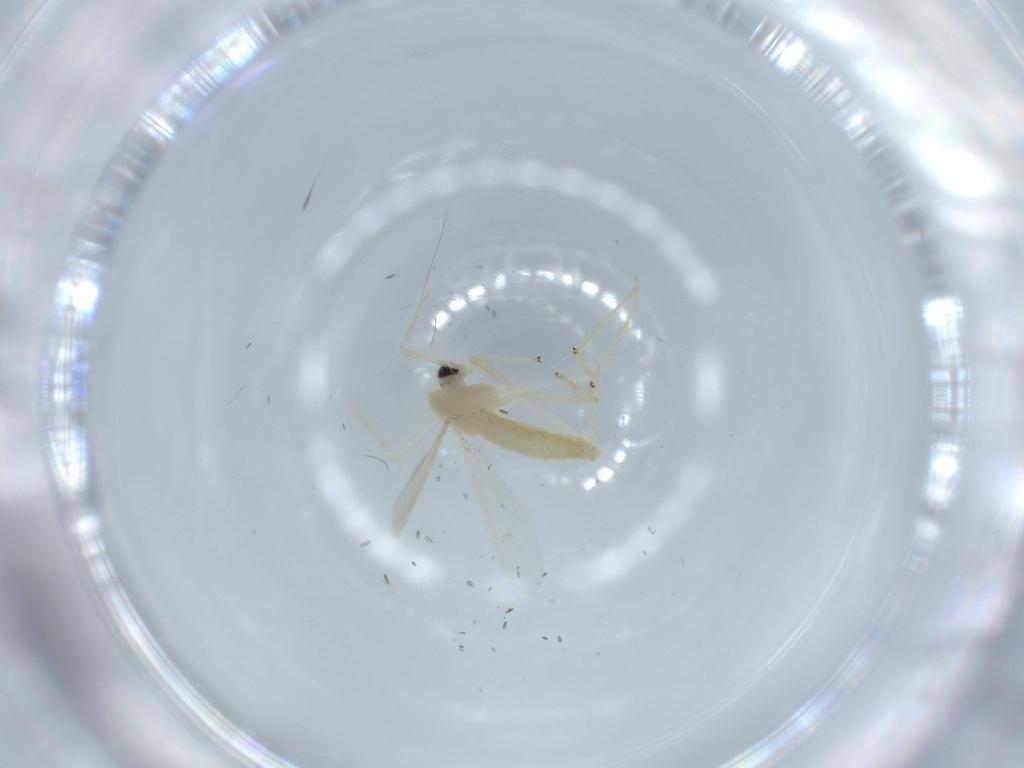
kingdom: Animalia
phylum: Arthropoda
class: Insecta
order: Diptera
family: Chironomidae
